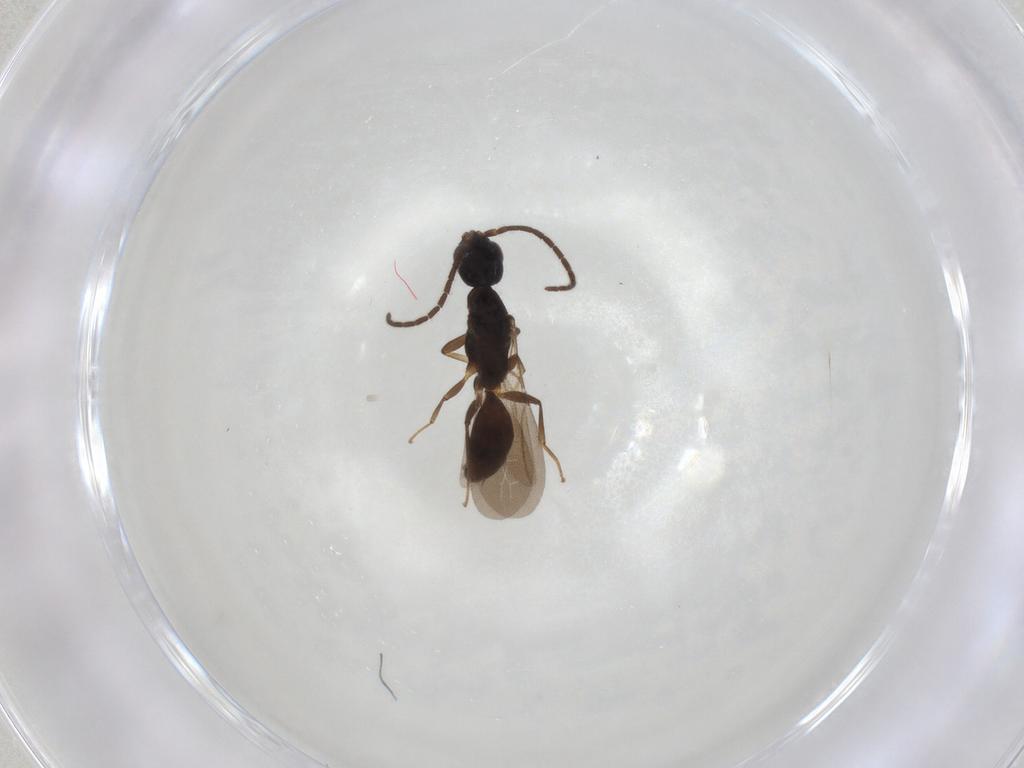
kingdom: Animalia
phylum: Arthropoda
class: Insecta
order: Hymenoptera
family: Bethylidae
